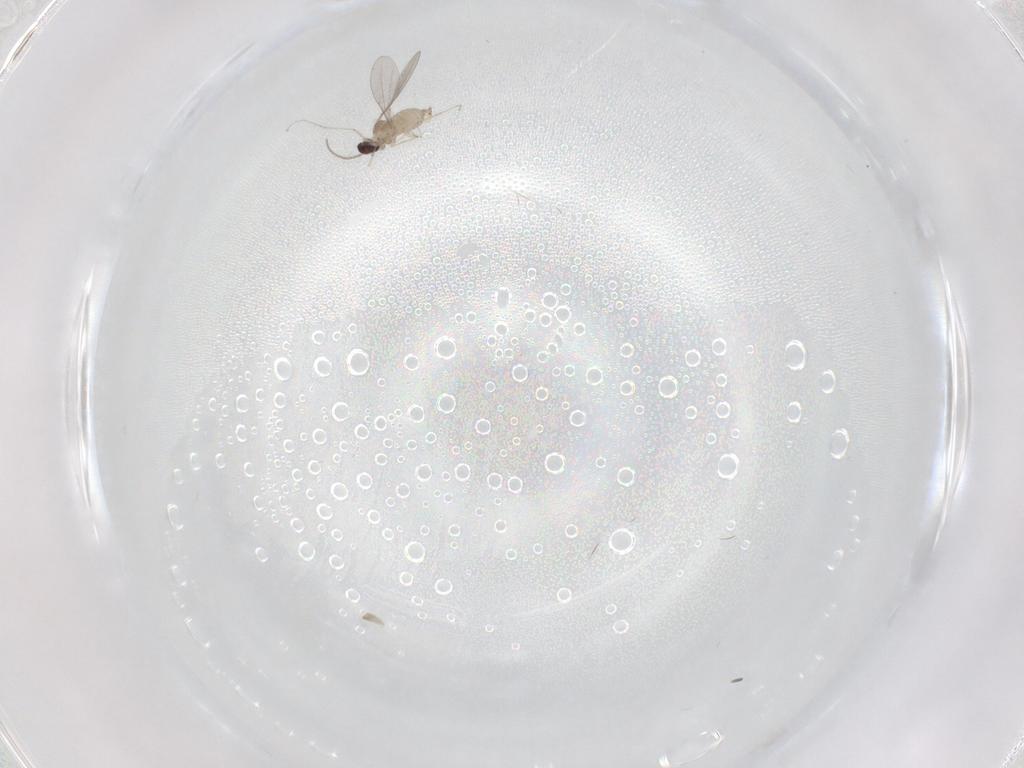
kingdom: Animalia
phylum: Arthropoda
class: Insecta
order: Diptera
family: Cecidomyiidae
